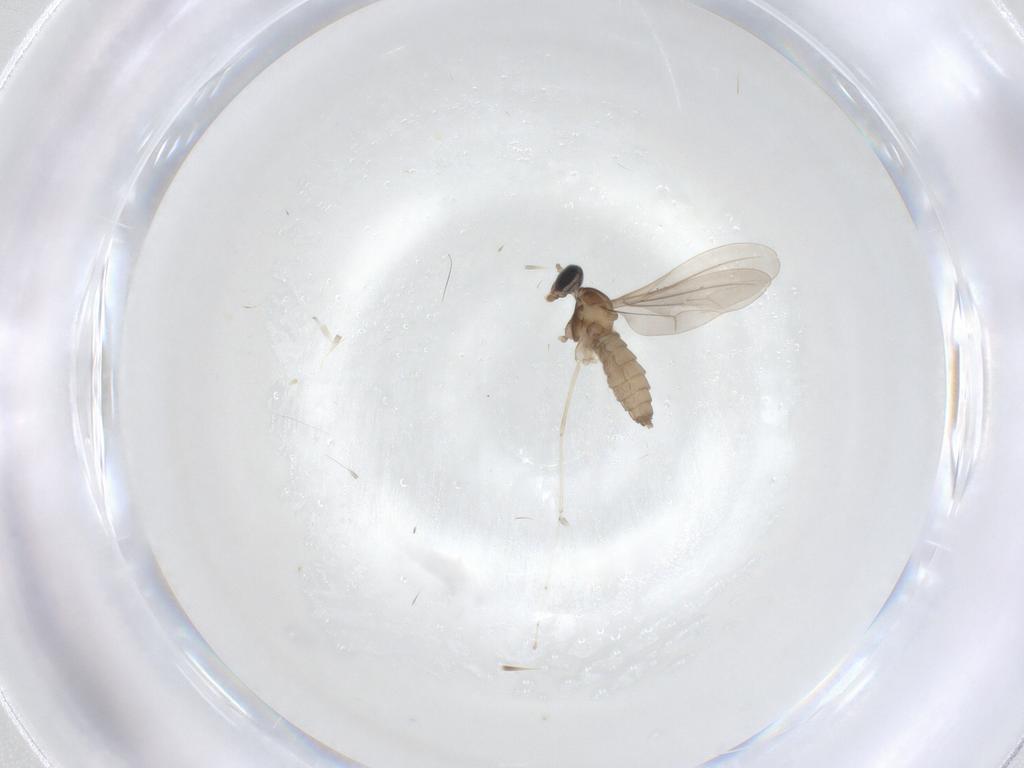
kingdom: Animalia
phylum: Arthropoda
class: Insecta
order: Diptera
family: Cecidomyiidae
